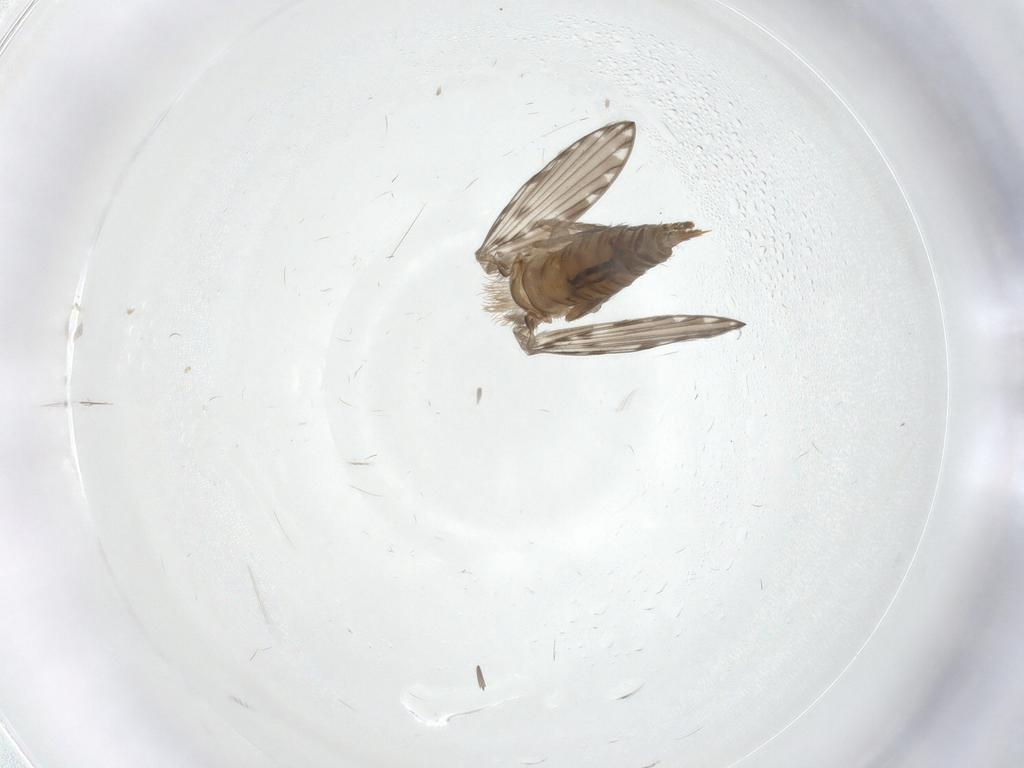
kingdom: Animalia
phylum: Arthropoda
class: Insecta
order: Diptera
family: Psychodidae
